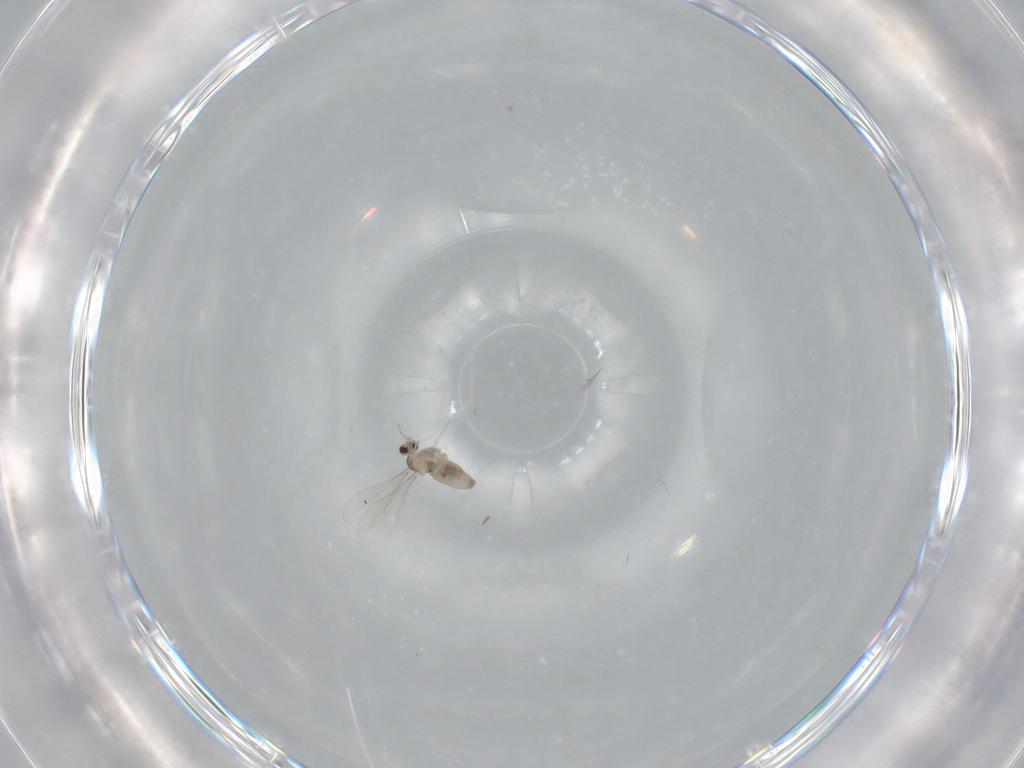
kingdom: Animalia
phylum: Arthropoda
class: Insecta
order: Diptera
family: Cecidomyiidae
